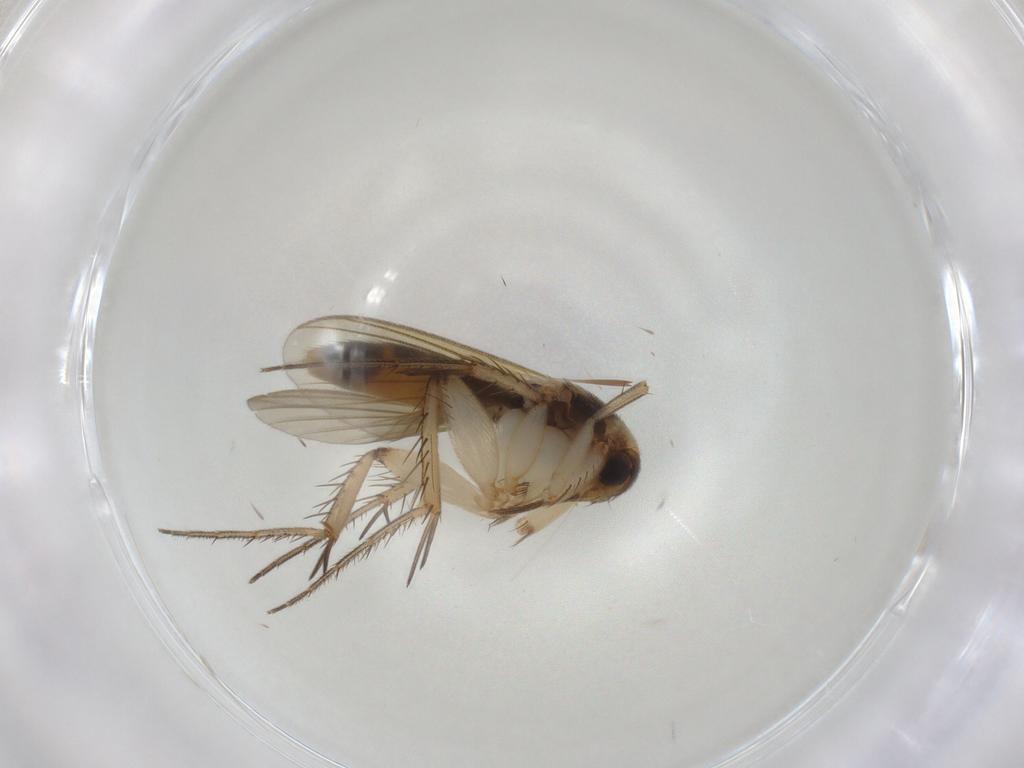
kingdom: Animalia
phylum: Arthropoda
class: Insecta
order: Diptera
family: Mycetophilidae
